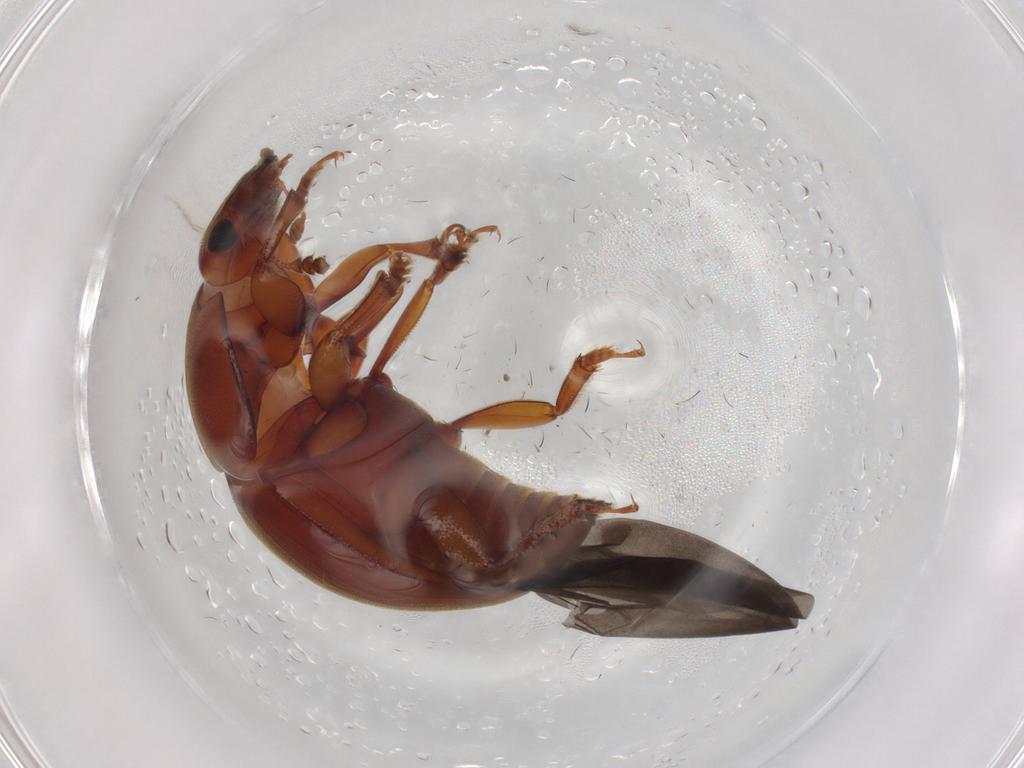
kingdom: Animalia
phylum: Arthropoda
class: Insecta
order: Coleoptera
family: Nitidulidae
